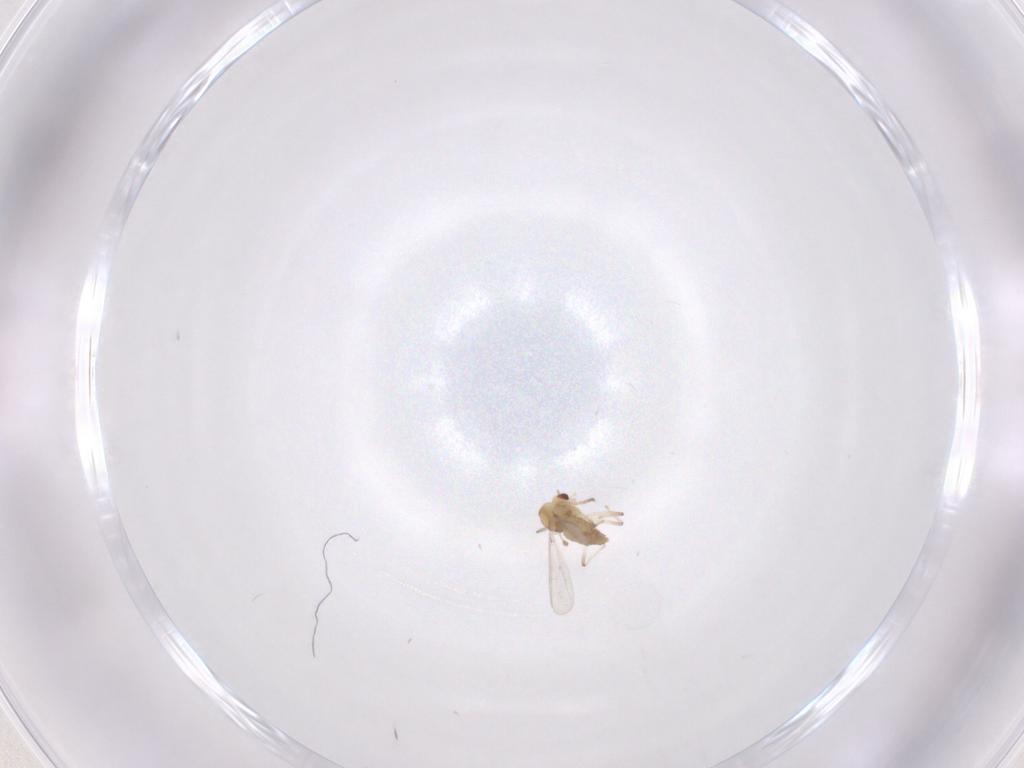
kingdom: Animalia
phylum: Arthropoda
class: Insecta
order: Diptera
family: Chironomidae
